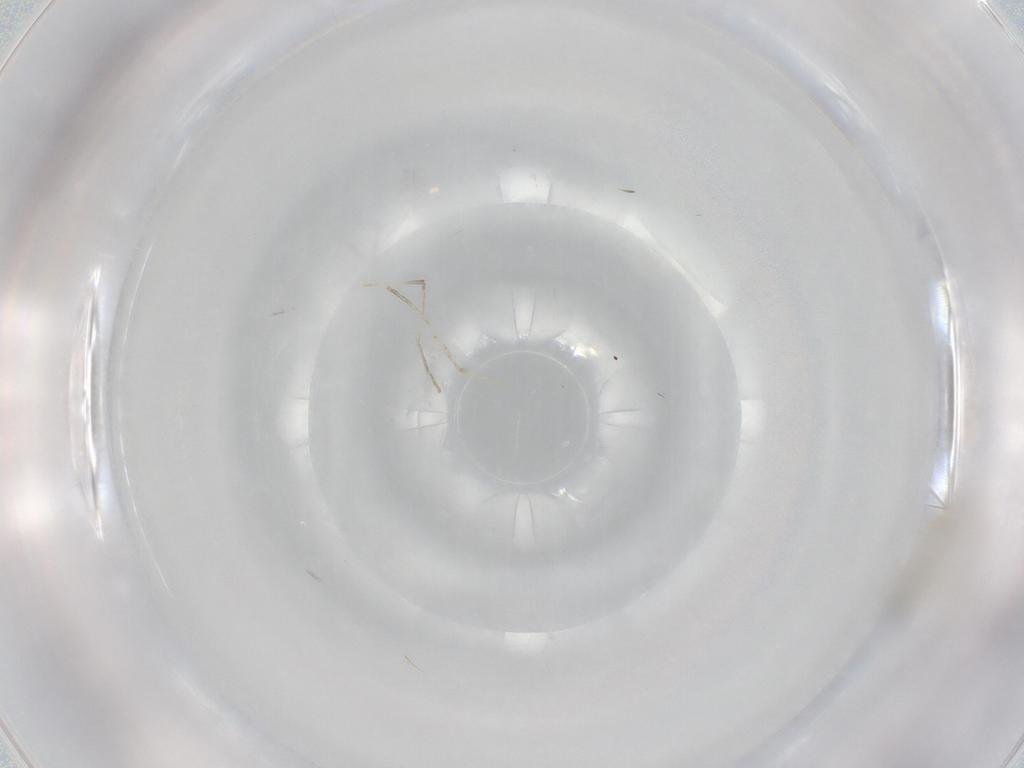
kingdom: Animalia
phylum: Arthropoda
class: Insecta
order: Diptera
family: Cecidomyiidae
